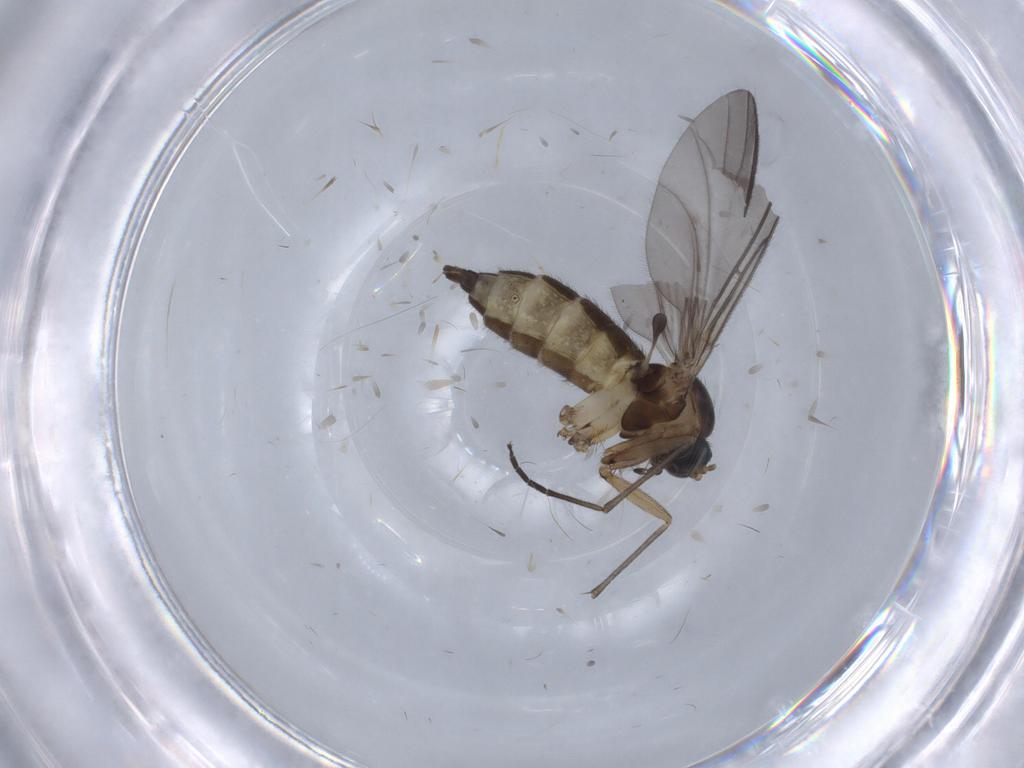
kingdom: Animalia
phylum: Arthropoda
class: Insecta
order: Diptera
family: Sciaridae
